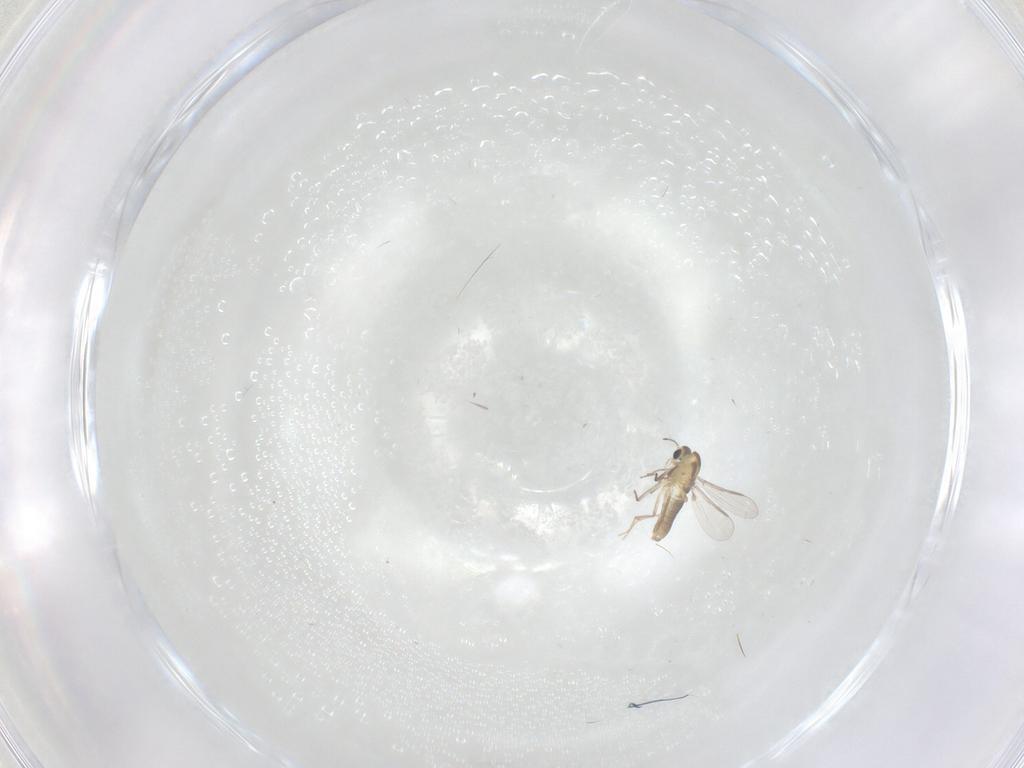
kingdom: Animalia
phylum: Arthropoda
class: Insecta
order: Diptera
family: Chironomidae
